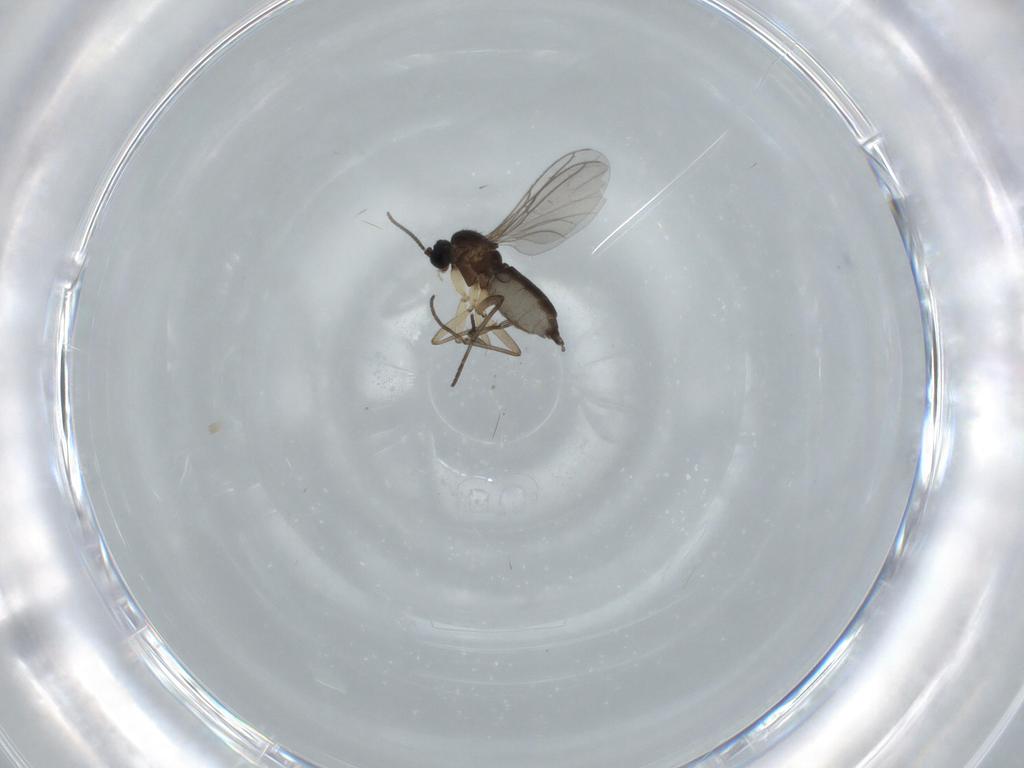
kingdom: Animalia
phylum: Arthropoda
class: Insecta
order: Diptera
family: Sciaridae
